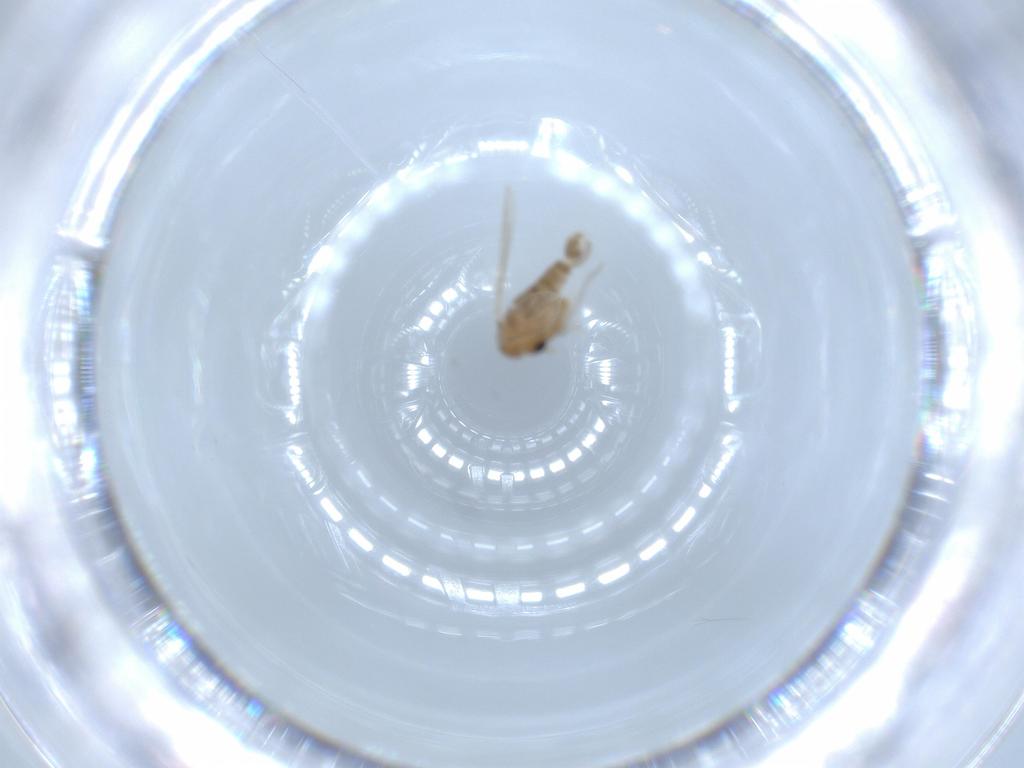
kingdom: Animalia
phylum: Arthropoda
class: Insecta
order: Diptera
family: Psychodidae
